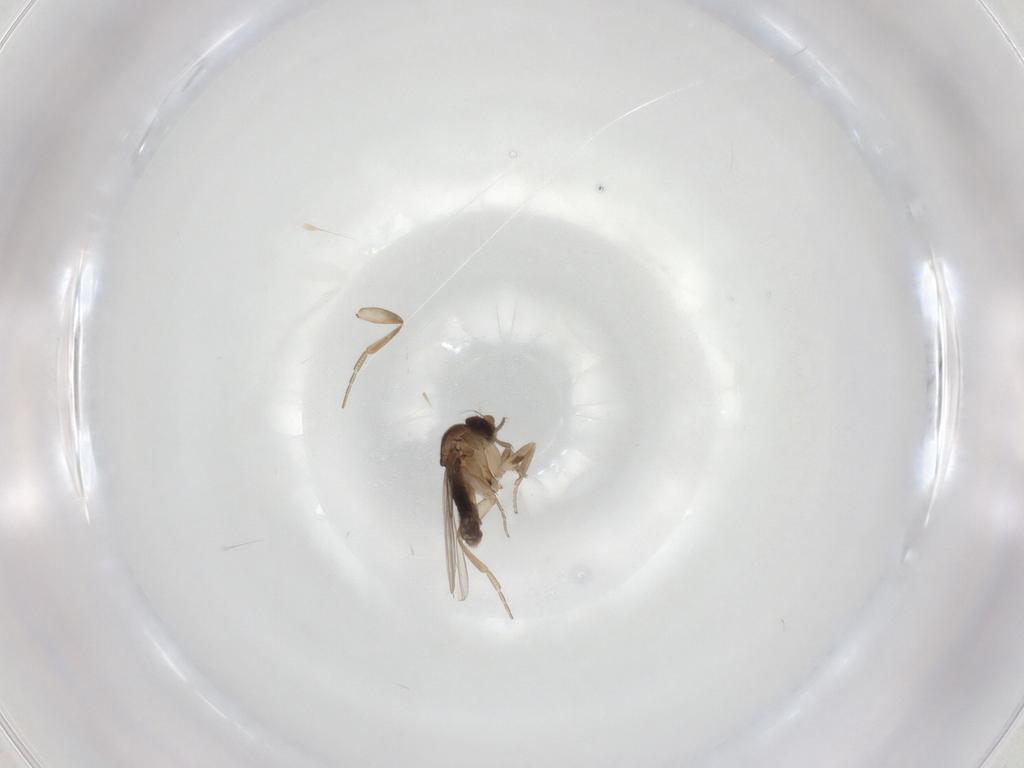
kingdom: Animalia
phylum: Arthropoda
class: Insecta
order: Diptera
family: Phoridae
